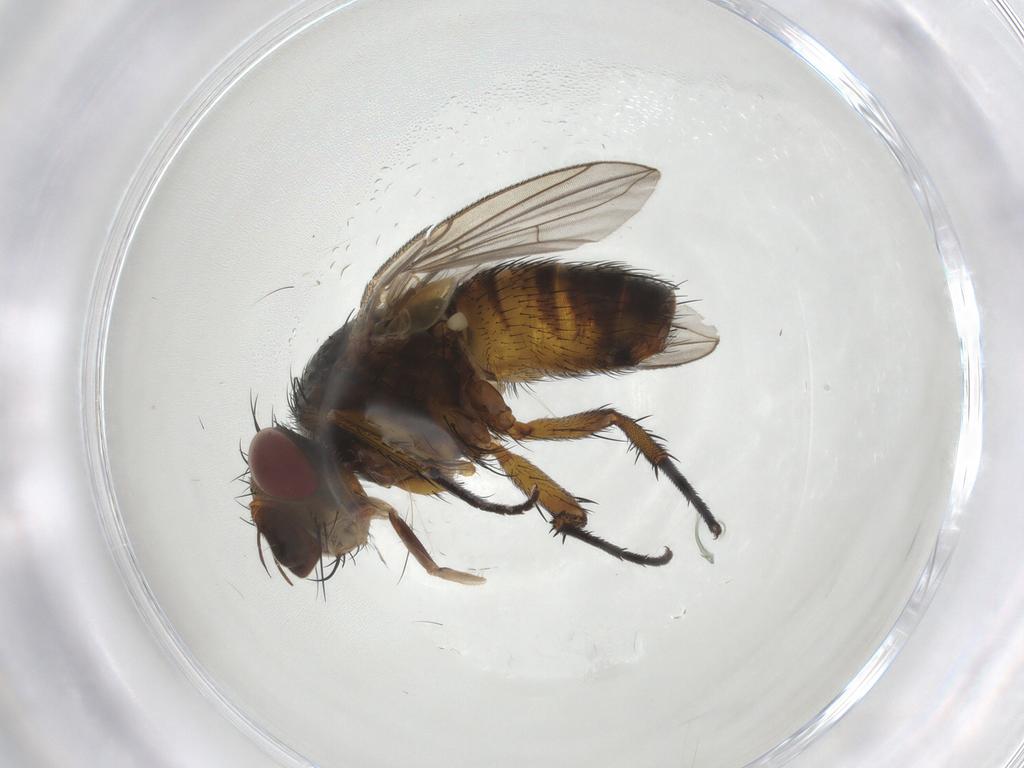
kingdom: Animalia
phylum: Arthropoda
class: Insecta
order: Diptera
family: Tachinidae
